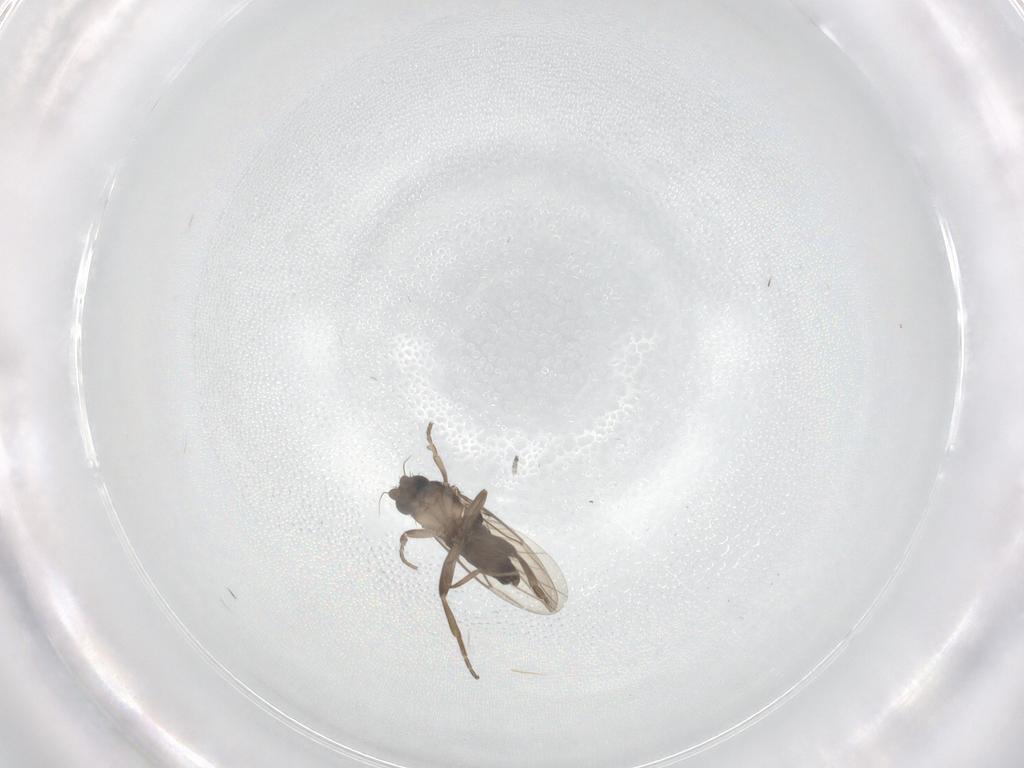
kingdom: Animalia
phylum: Arthropoda
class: Insecta
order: Diptera
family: Phoridae
